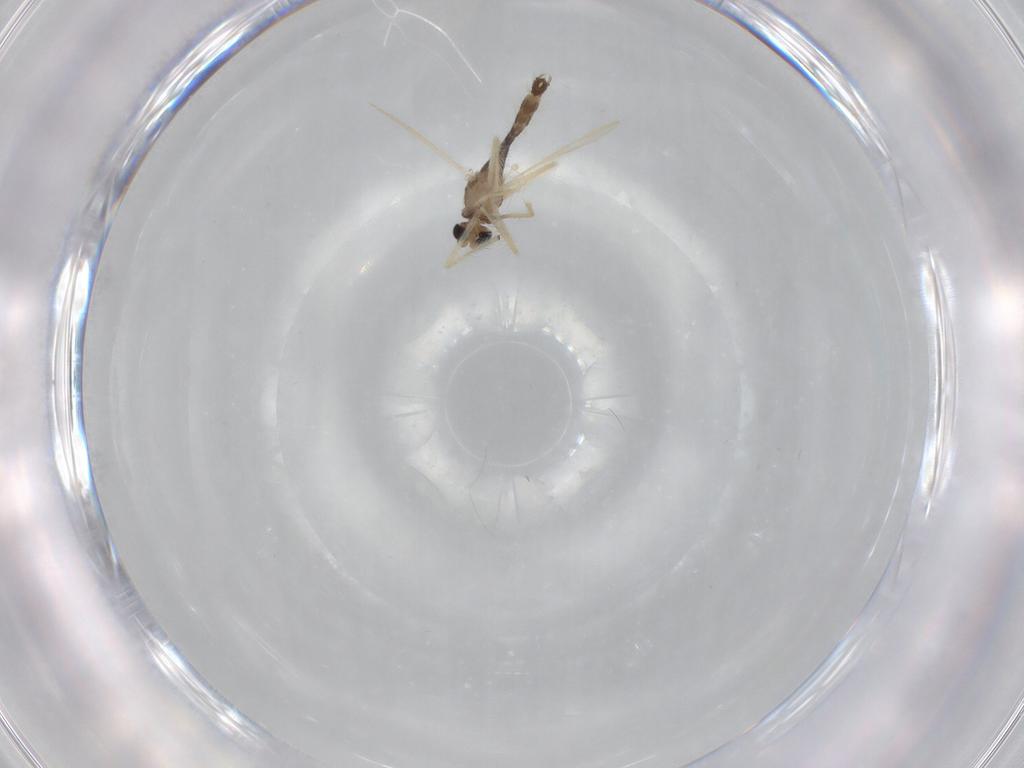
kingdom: Animalia
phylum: Arthropoda
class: Insecta
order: Diptera
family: Chironomidae
